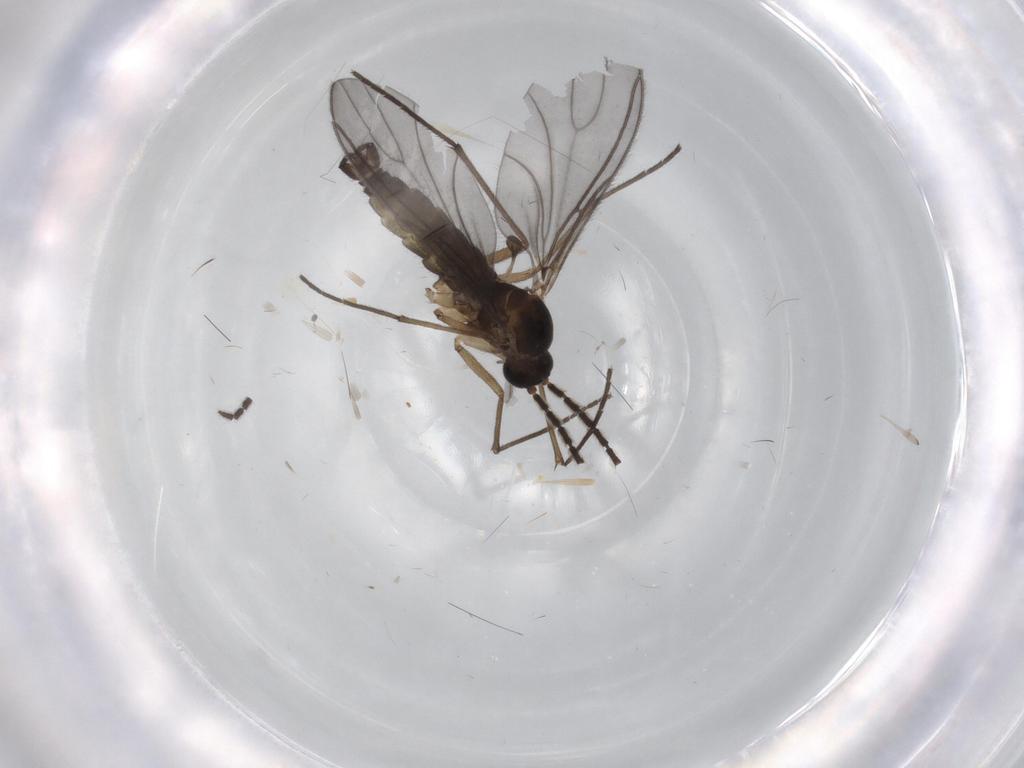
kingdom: Animalia
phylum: Arthropoda
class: Insecta
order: Diptera
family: Sciaridae
